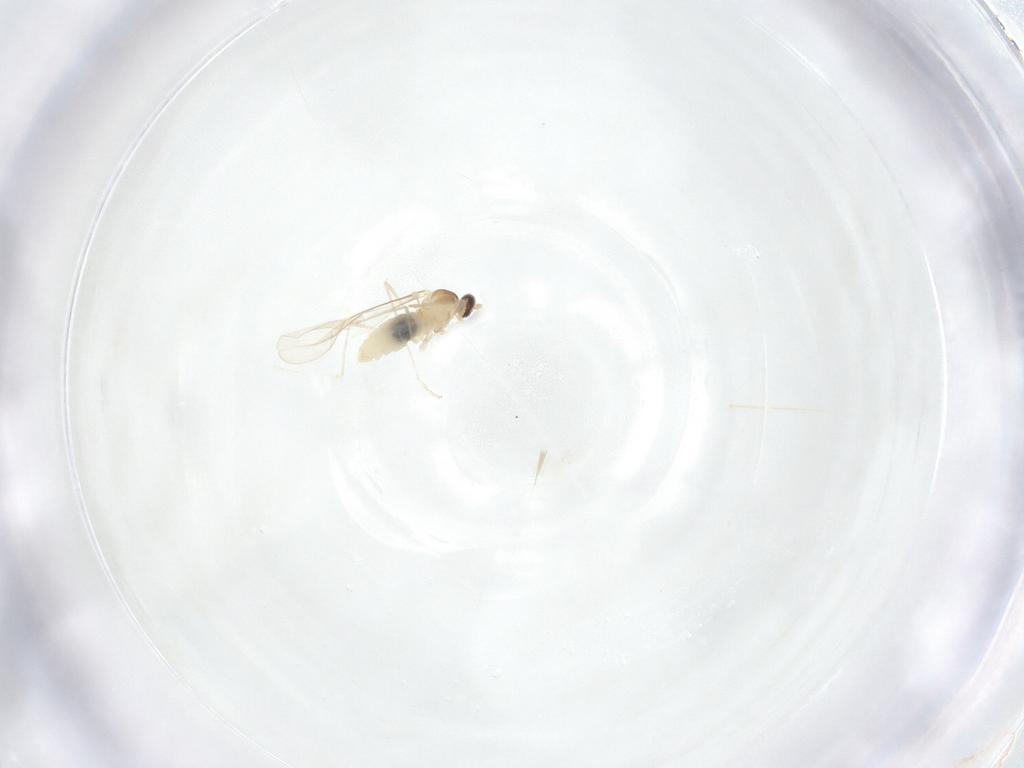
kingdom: Animalia
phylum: Arthropoda
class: Insecta
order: Diptera
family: Cecidomyiidae
